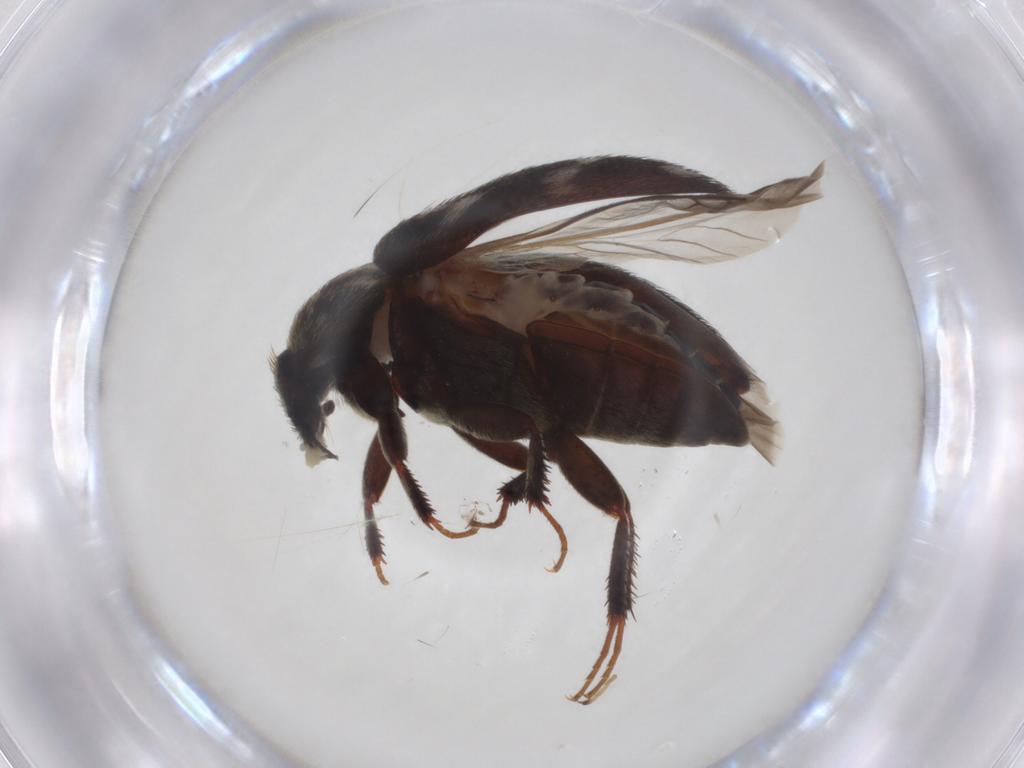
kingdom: Animalia
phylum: Arthropoda
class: Insecta
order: Coleoptera
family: Dermestidae
